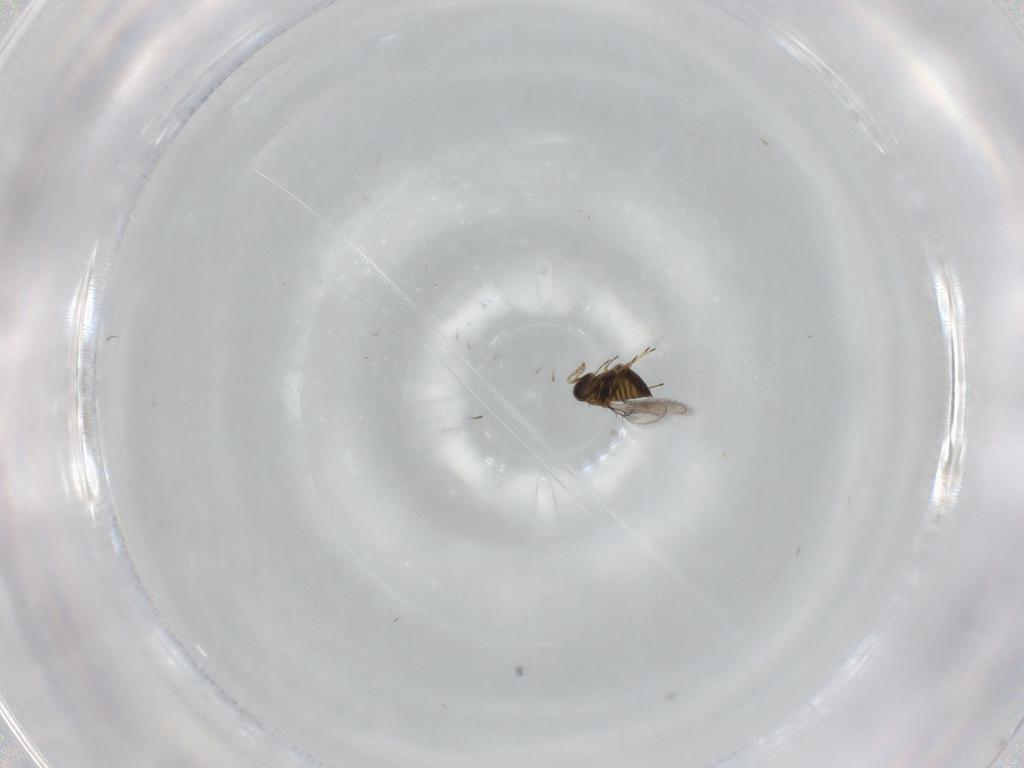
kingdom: Animalia
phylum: Arthropoda
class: Insecta
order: Hymenoptera
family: Trichogrammatidae
